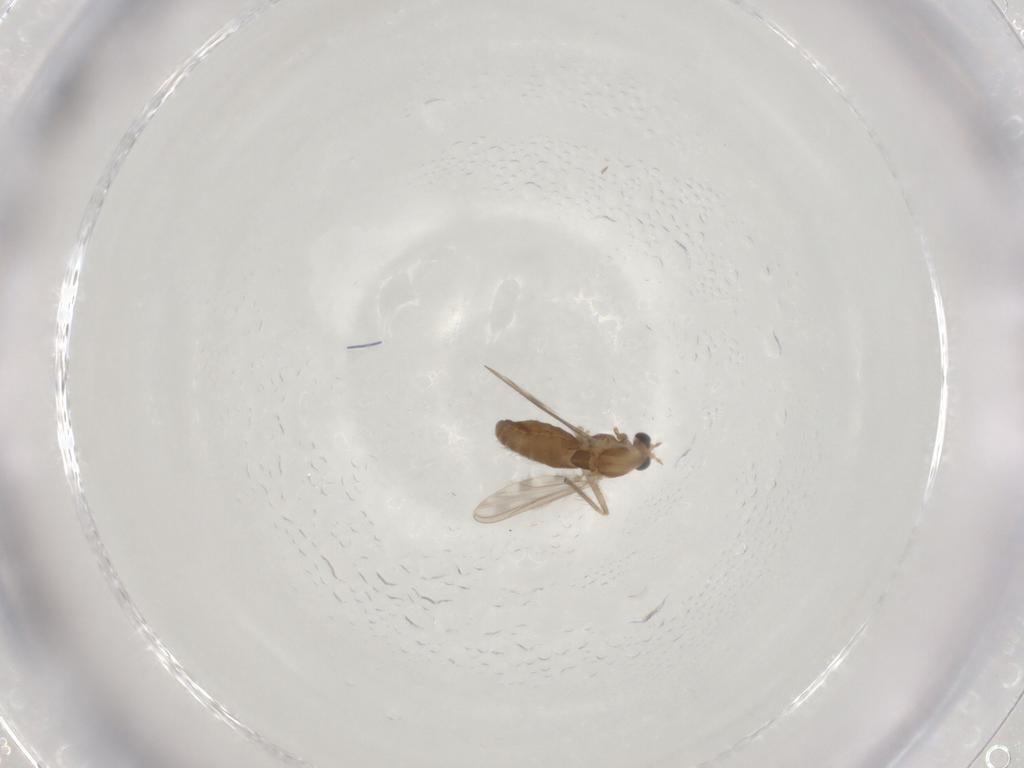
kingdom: Animalia
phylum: Arthropoda
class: Insecta
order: Diptera
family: Chironomidae
